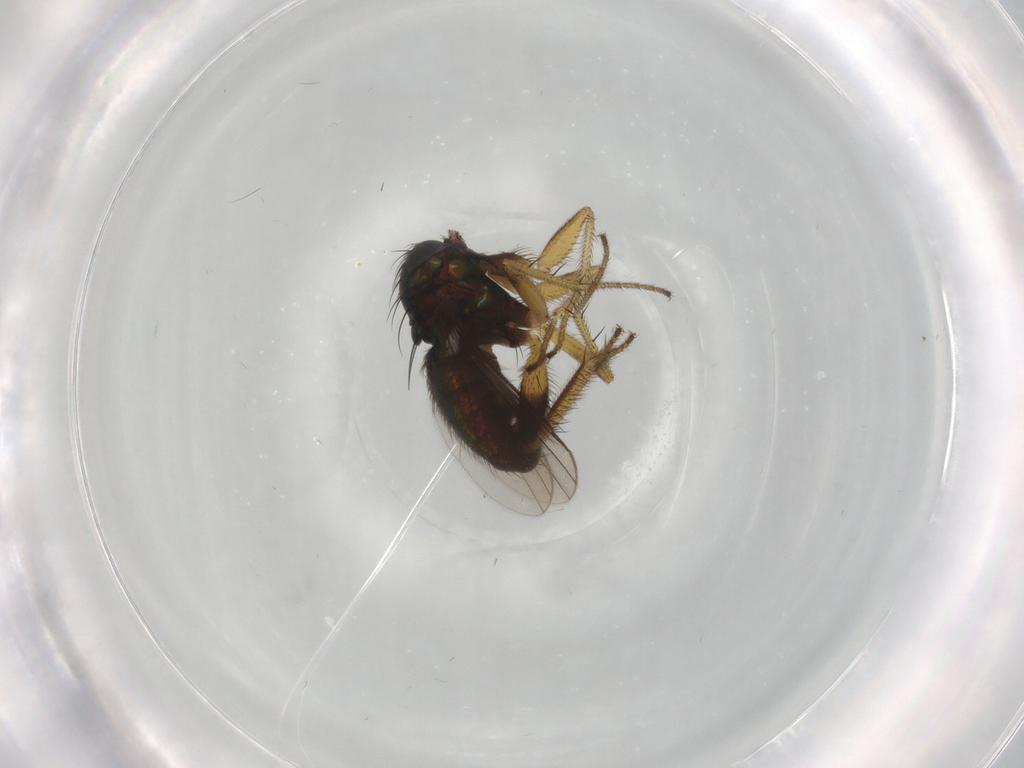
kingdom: Animalia
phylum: Arthropoda
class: Insecta
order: Diptera
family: Dolichopodidae
